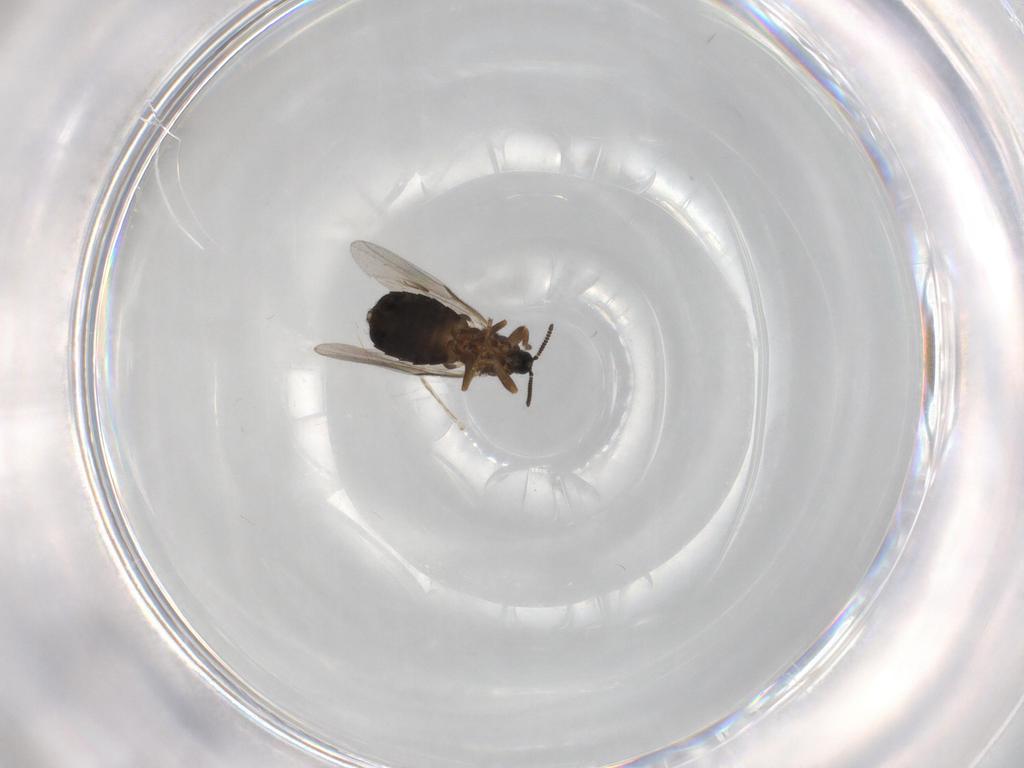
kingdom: Animalia
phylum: Arthropoda
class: Insecta
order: Diptera
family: Scatopsidae
